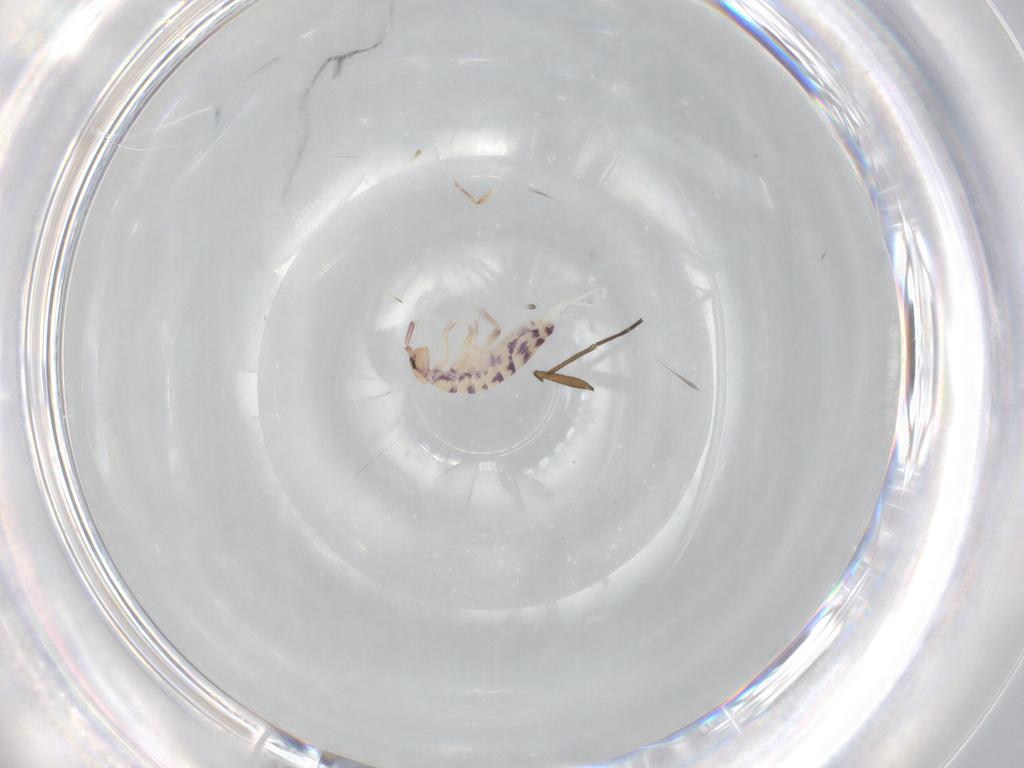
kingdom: Animalia
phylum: Arthropoda
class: Collembola
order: Entomobryomorpha
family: Entomobryidae
